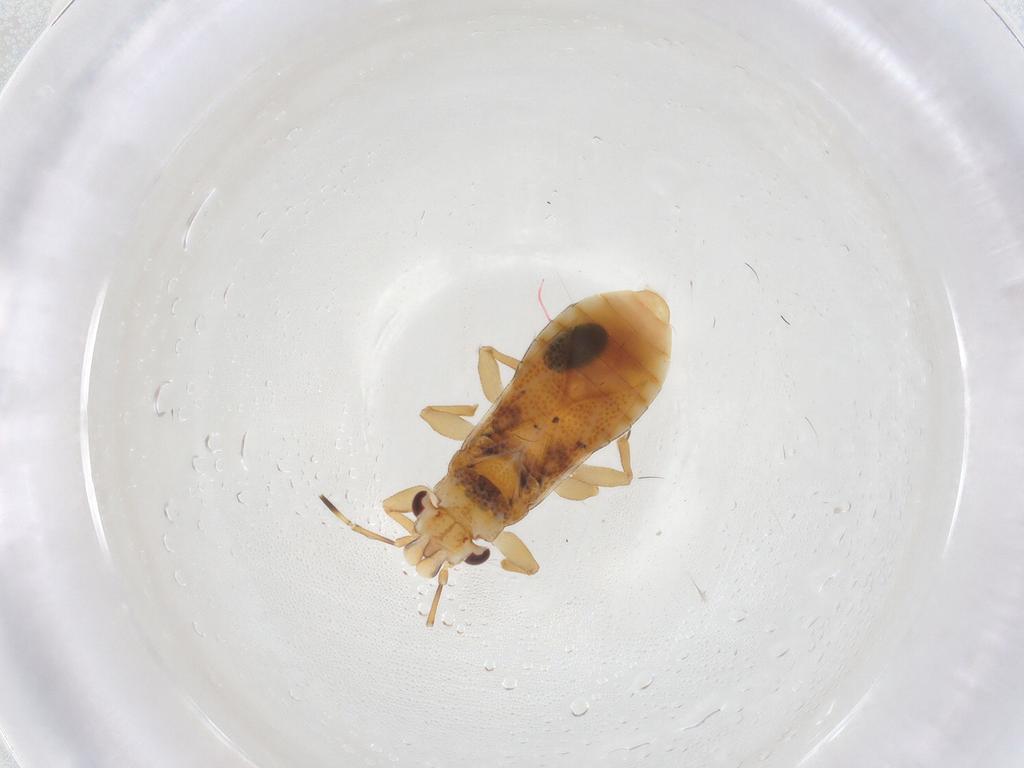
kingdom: Animalia
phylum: Arthropoda
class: Insecta
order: Hemiptera
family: Thaumastocoridae
